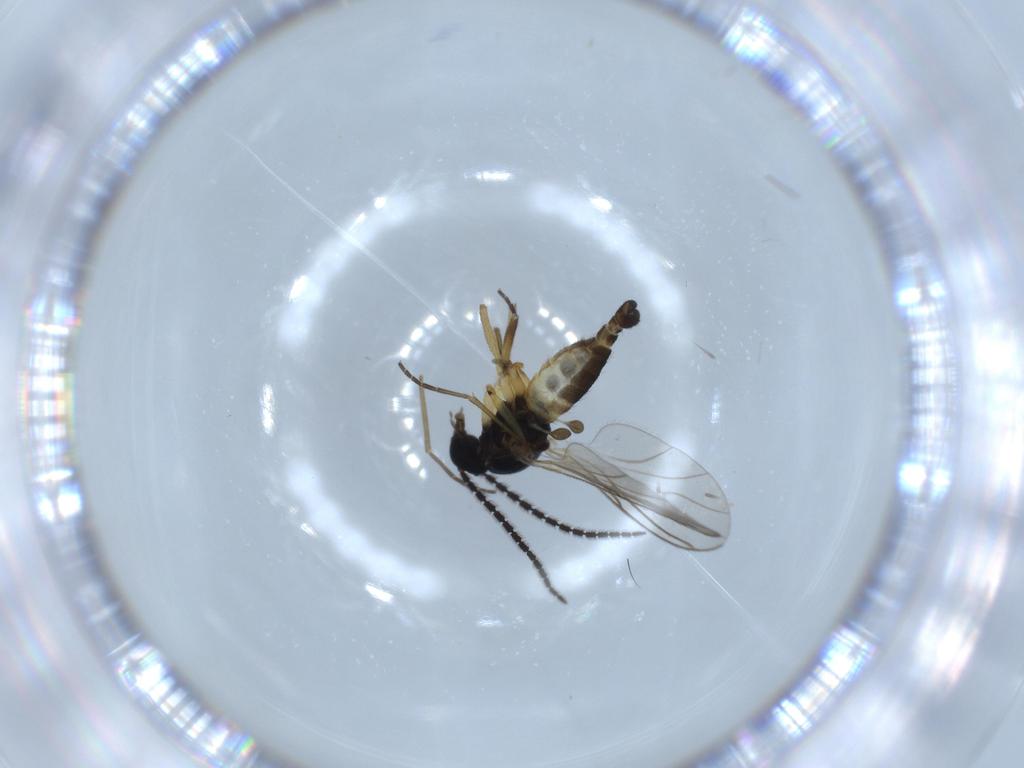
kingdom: Animalia
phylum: Arthropoda
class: Insecta
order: Diptera
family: Sciaridae
